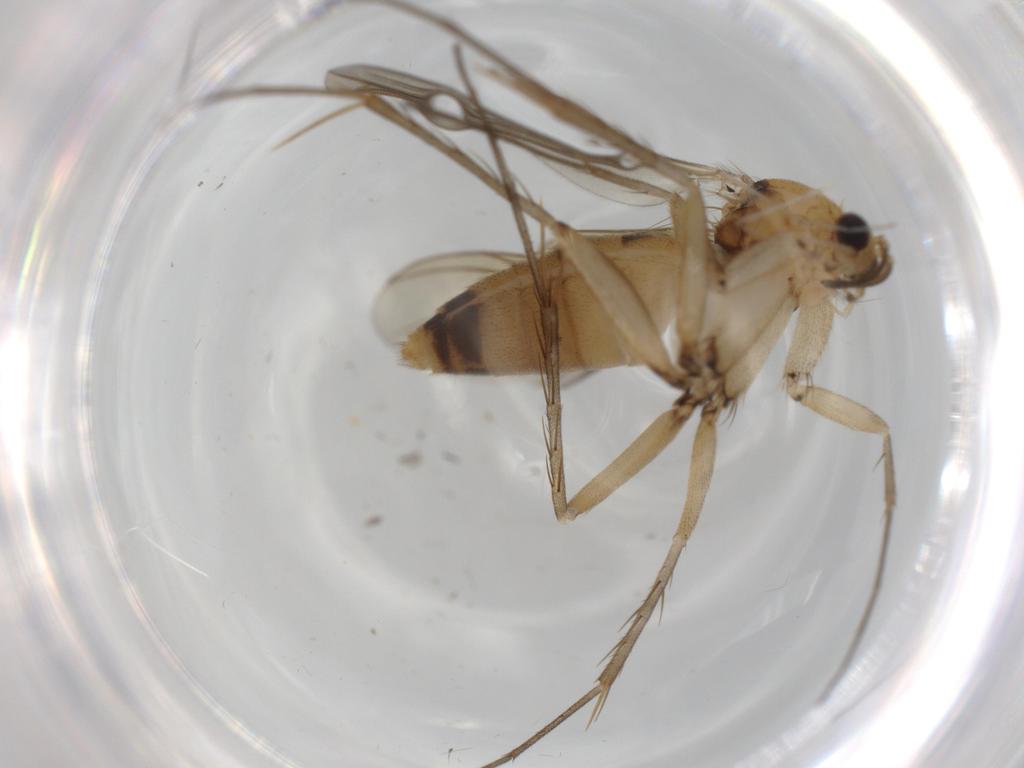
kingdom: Animalia
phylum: Arthropoda
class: Insecta
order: Diptera
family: Mycetophilidae
